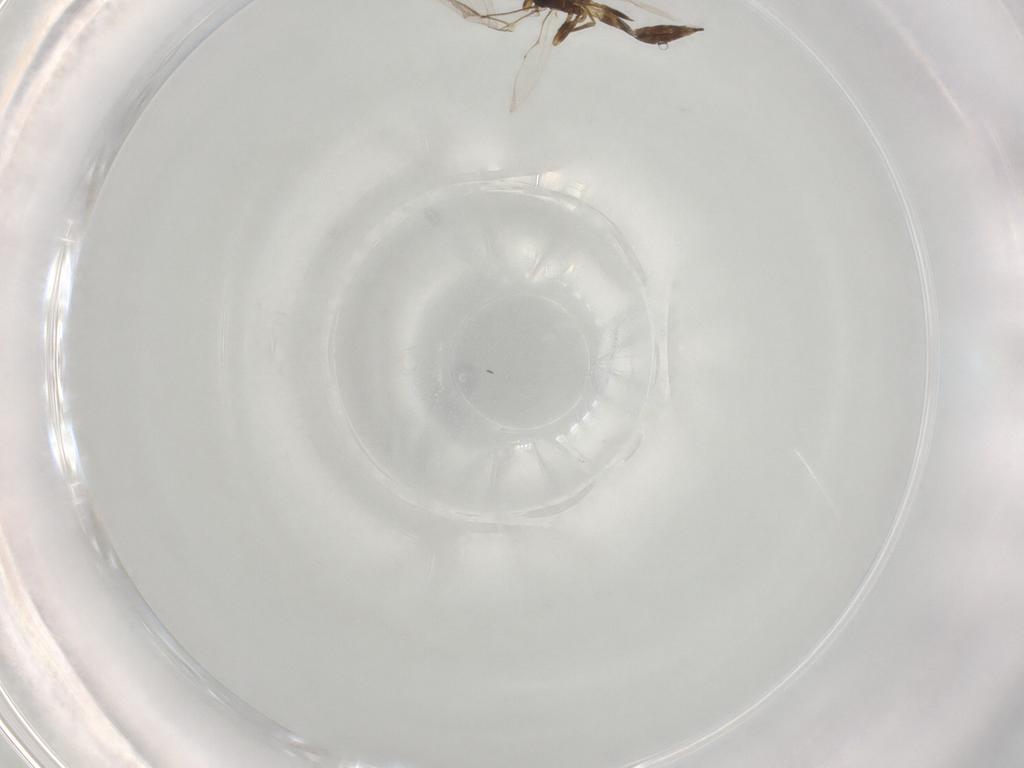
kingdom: Animalia
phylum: Arthropoda
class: Insecta
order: Hymenoptera
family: Braconidae
